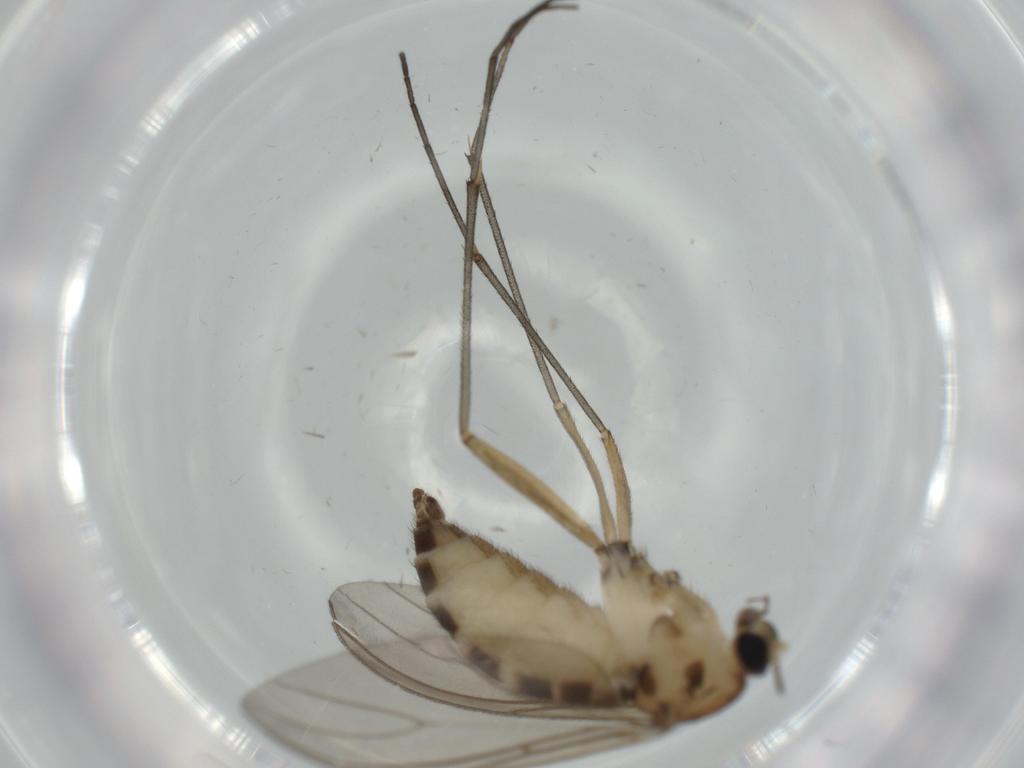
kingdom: Animalia
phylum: Arthropoda
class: Insecta
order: Diptera
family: Sciaridae
